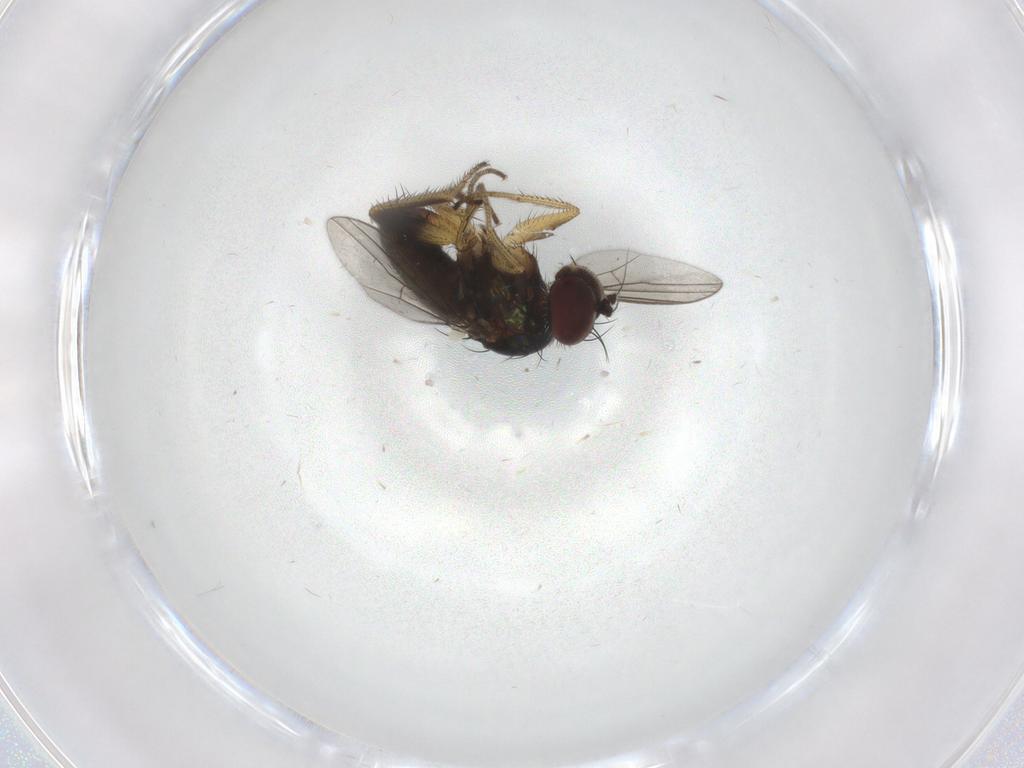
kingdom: Animalia
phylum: Arthropoda
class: Insecta
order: Diptera
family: Dolichopodidae
